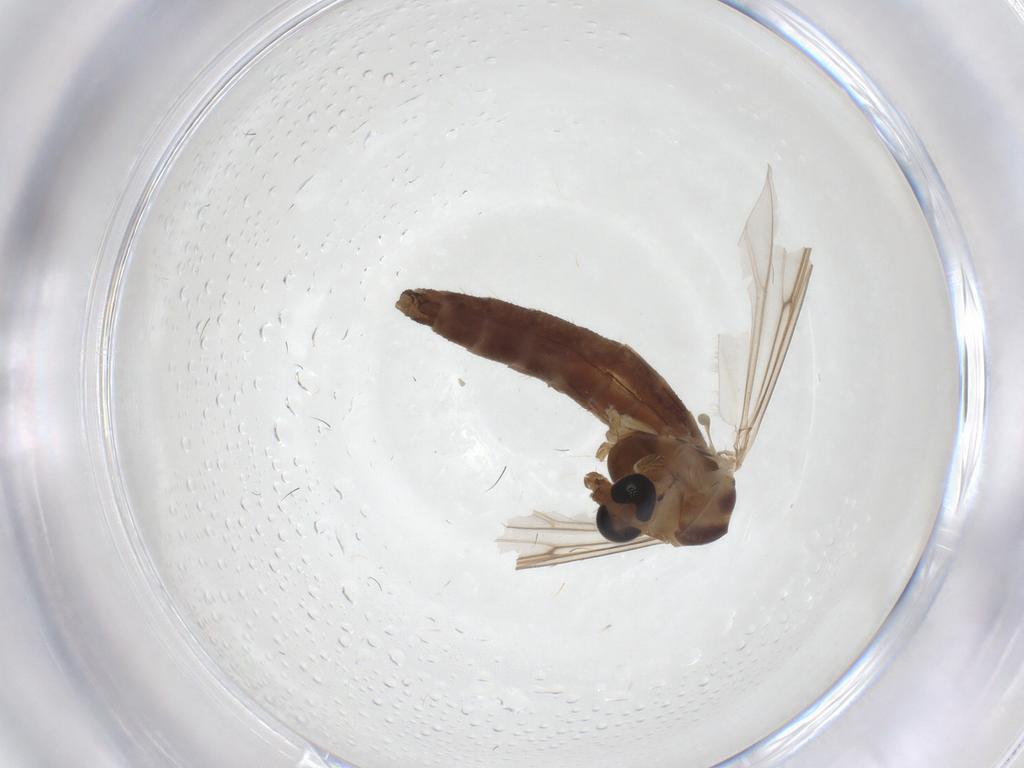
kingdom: Animalia
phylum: Arthropoda
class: Insecta
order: Diptera
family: Chironomidae
